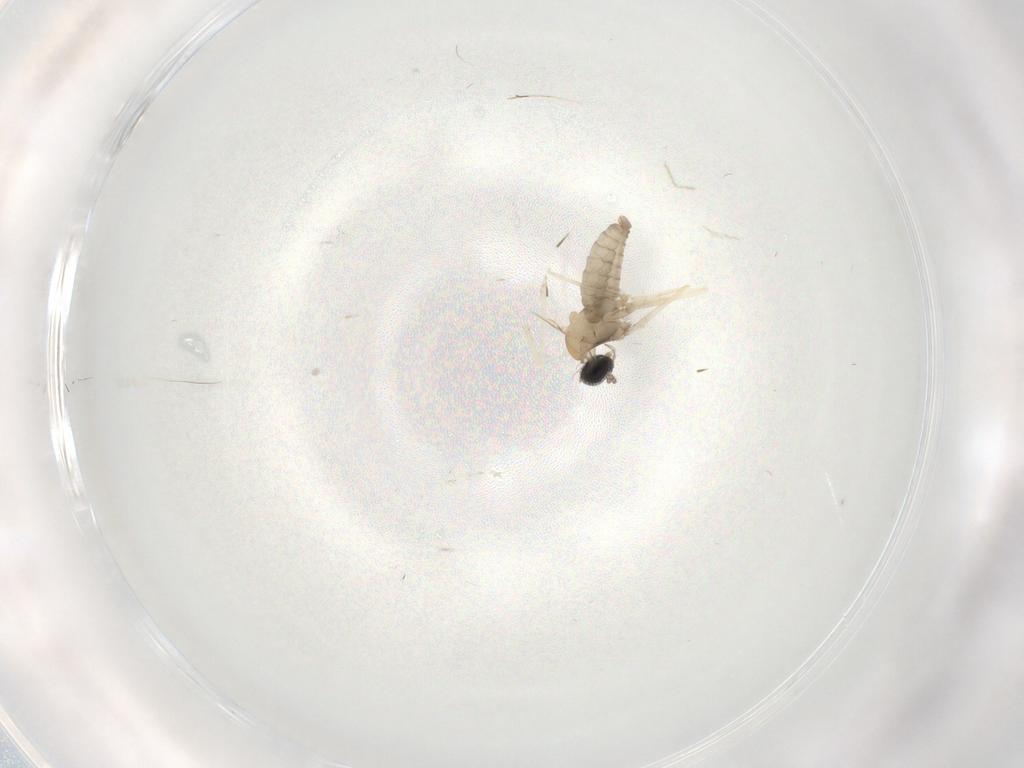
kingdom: Animalia
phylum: Arthropoda
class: Insecta
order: Diptera
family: Cecidomyiidae
